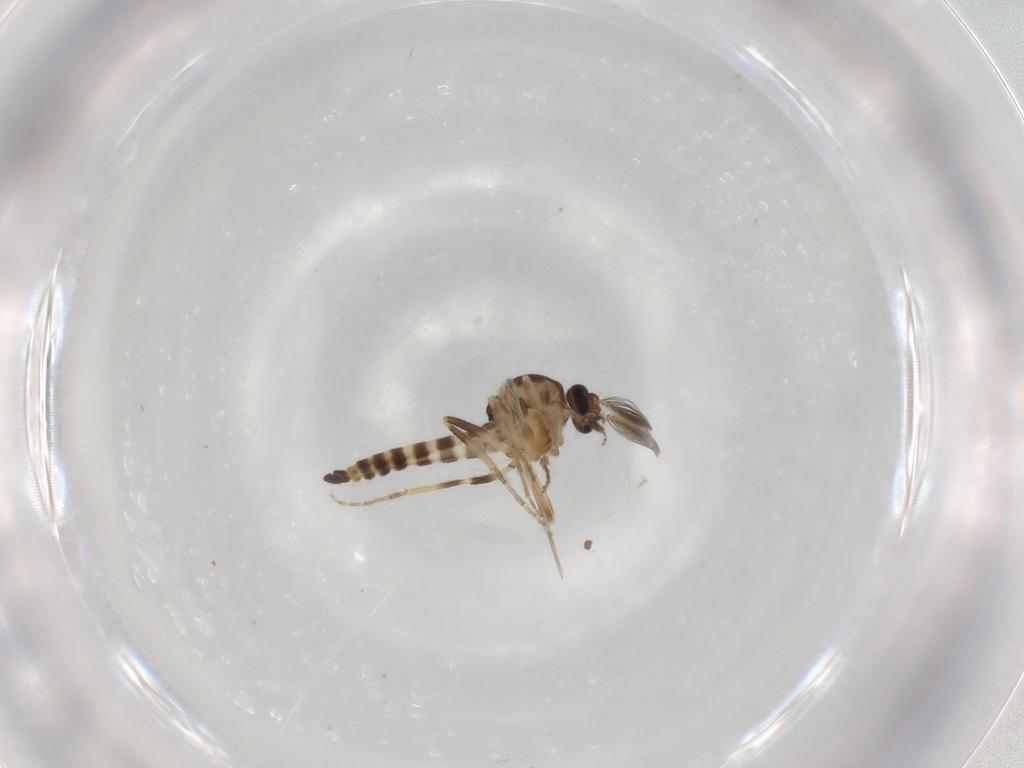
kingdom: Animalia
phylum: Arthropoda
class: Insecta
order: Diptera
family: Ceratopogonidae
